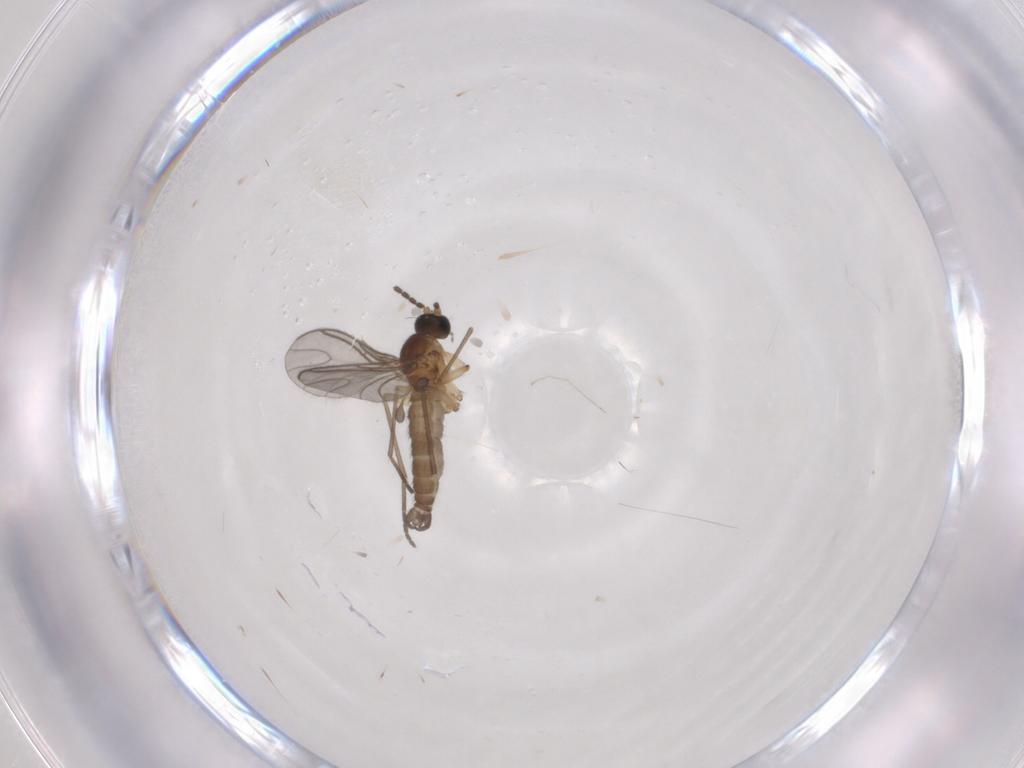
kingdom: Animalia
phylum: Arthropoda
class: Insecta
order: Diptera
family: Sciaridae
